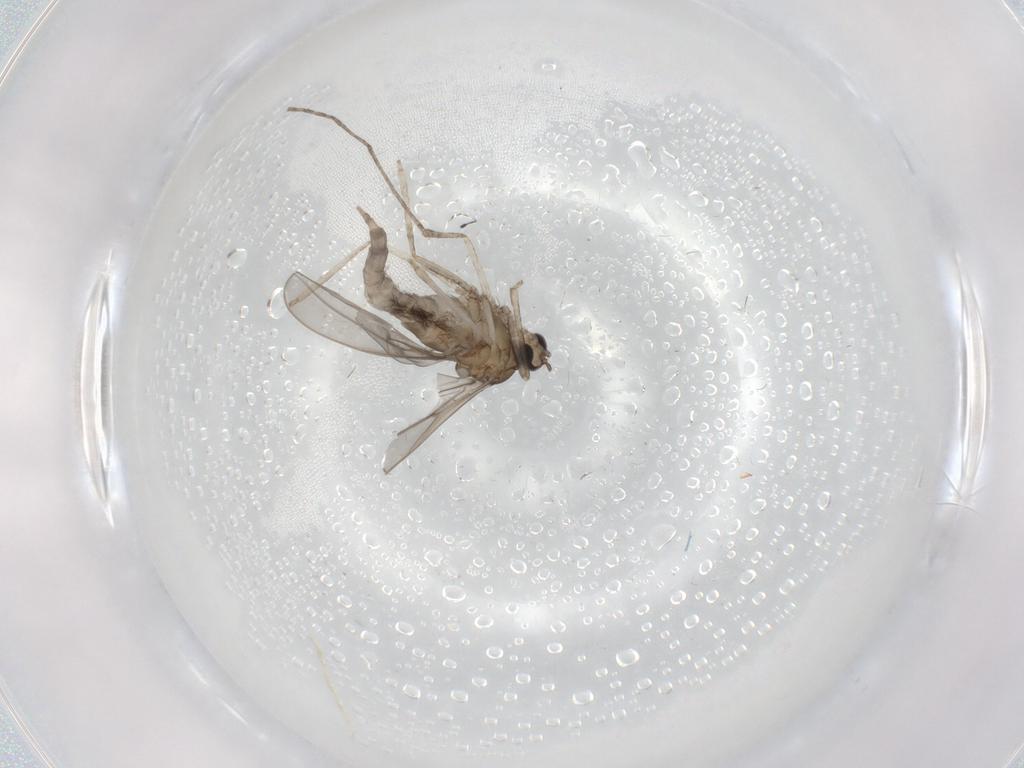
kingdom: Animalia
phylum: Arthropoda
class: Insecta
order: Diptera
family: Cecidomyiidae
